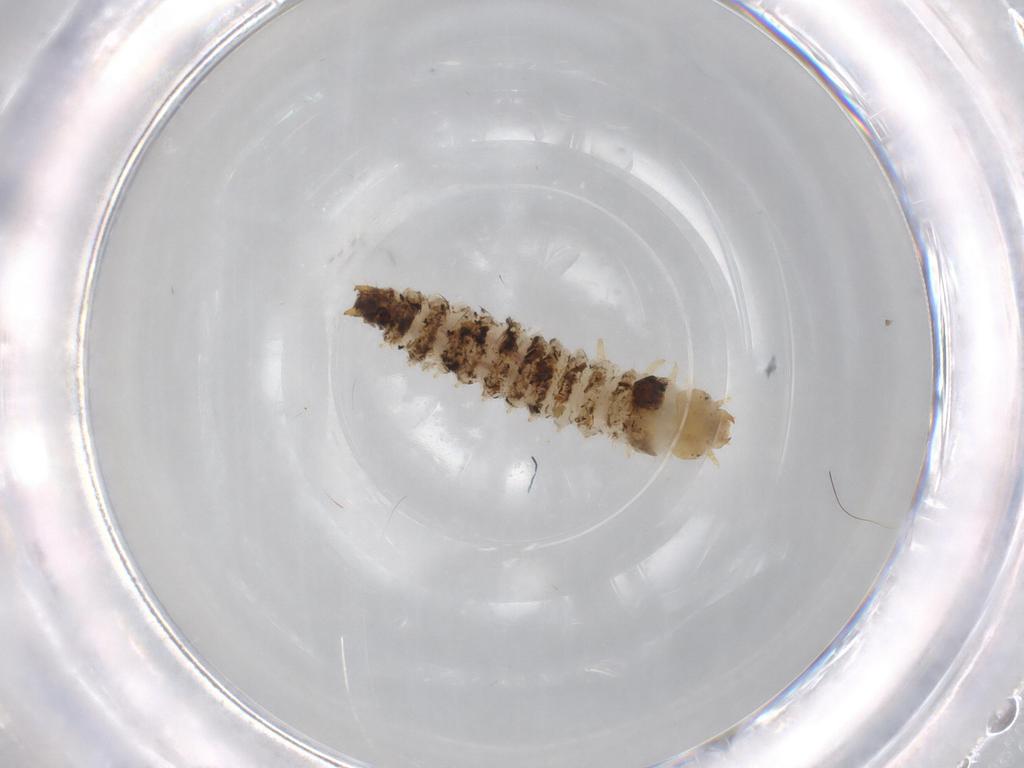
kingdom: Animalia
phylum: Arthropoda
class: Insecta
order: Coleoptera
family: Nitidulidae
